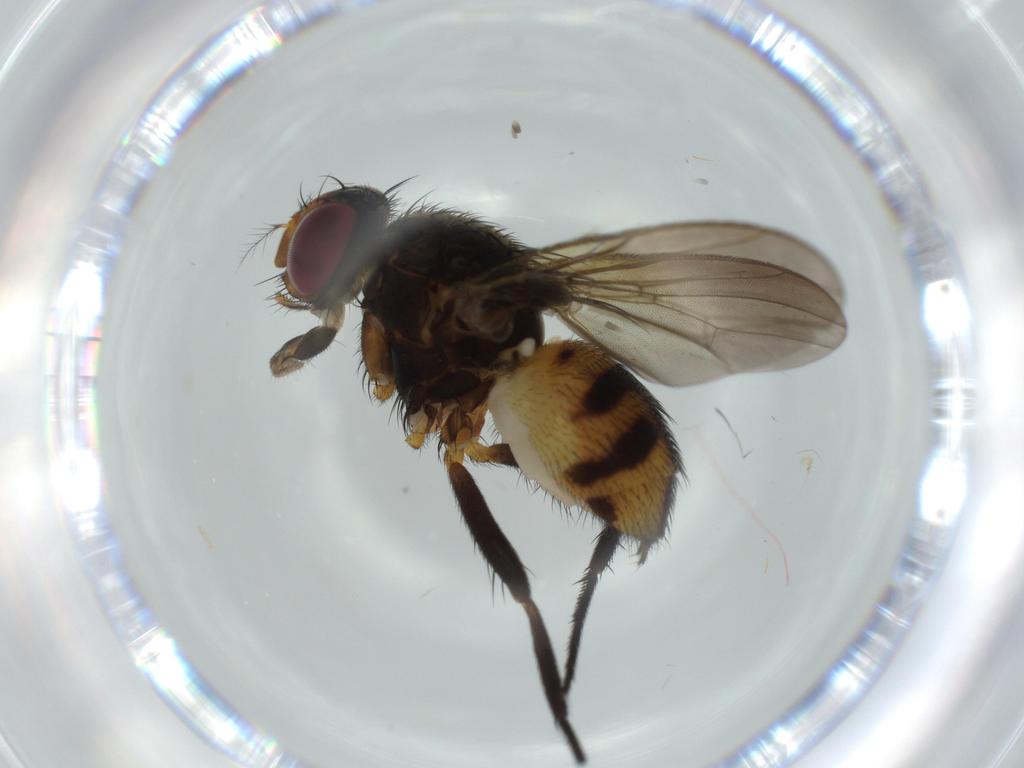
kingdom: Animalia
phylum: Arthropoda
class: Insecta
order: Diptera
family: Anthomyiidae
